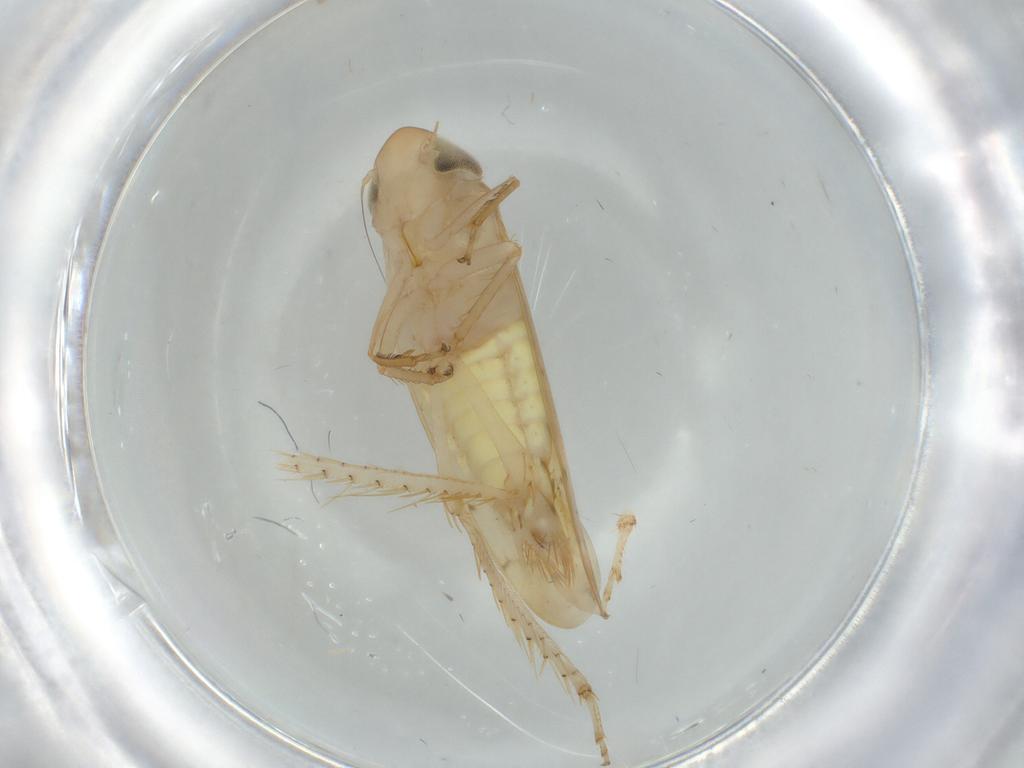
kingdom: Animalia
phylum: Arthropoda
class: Insecta
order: Hemiptera
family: Cicadellidae
